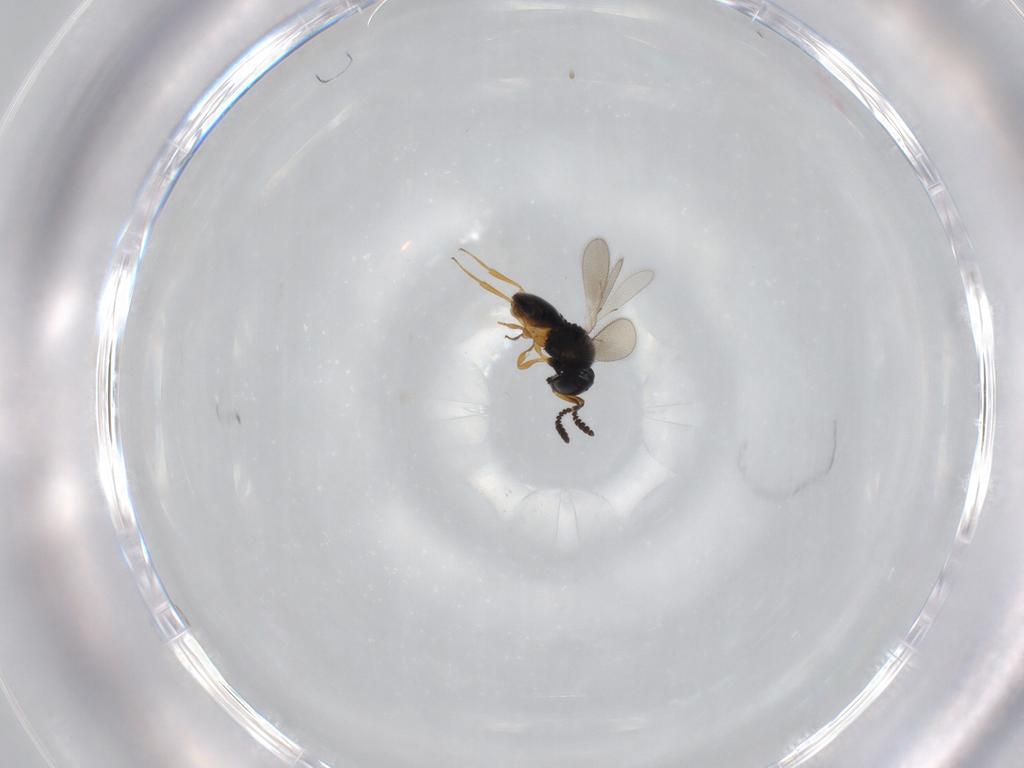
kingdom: Animalia
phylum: Arthropoda
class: Insecta
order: Hymenoptera
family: Scelionidae
